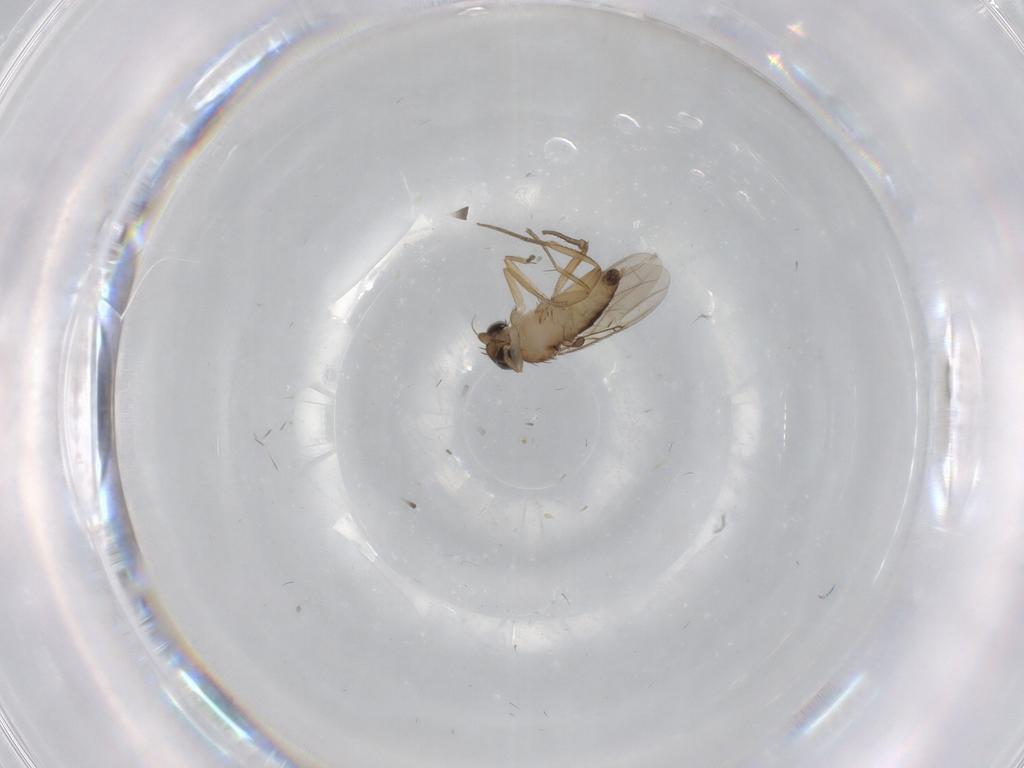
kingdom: Animalia
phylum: Arthropoda
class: Insecta
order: Diptera
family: Phoridae
